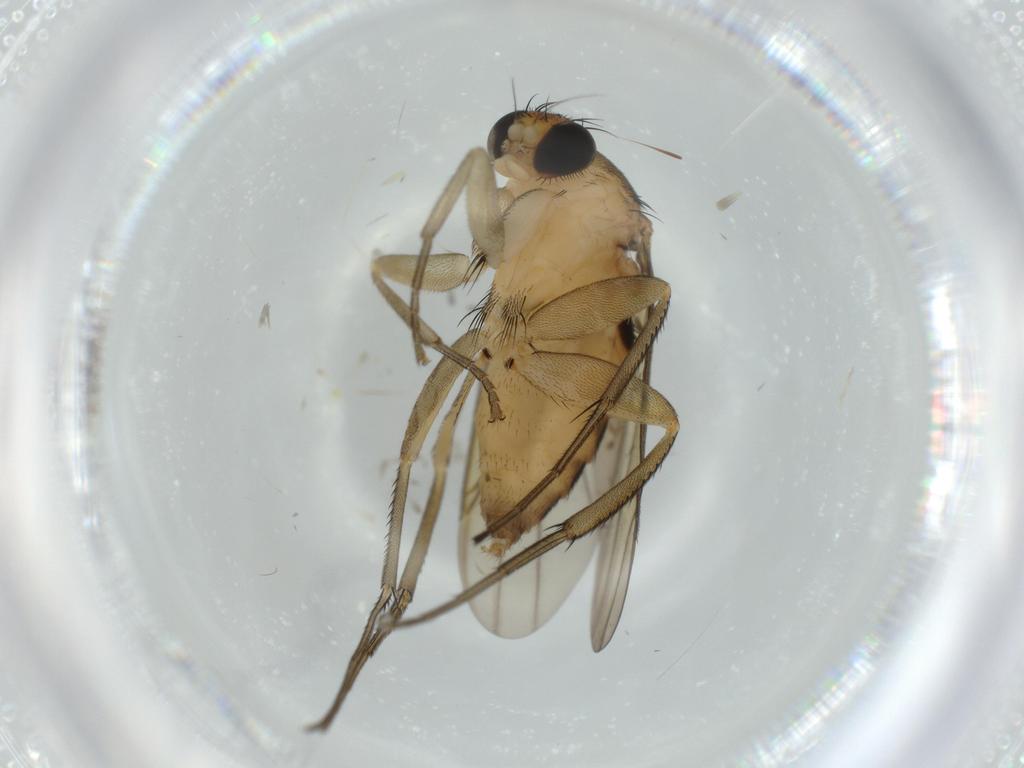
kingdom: Animalia
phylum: Arthropoda
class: Insecta
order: Diptera
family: Phoridae
